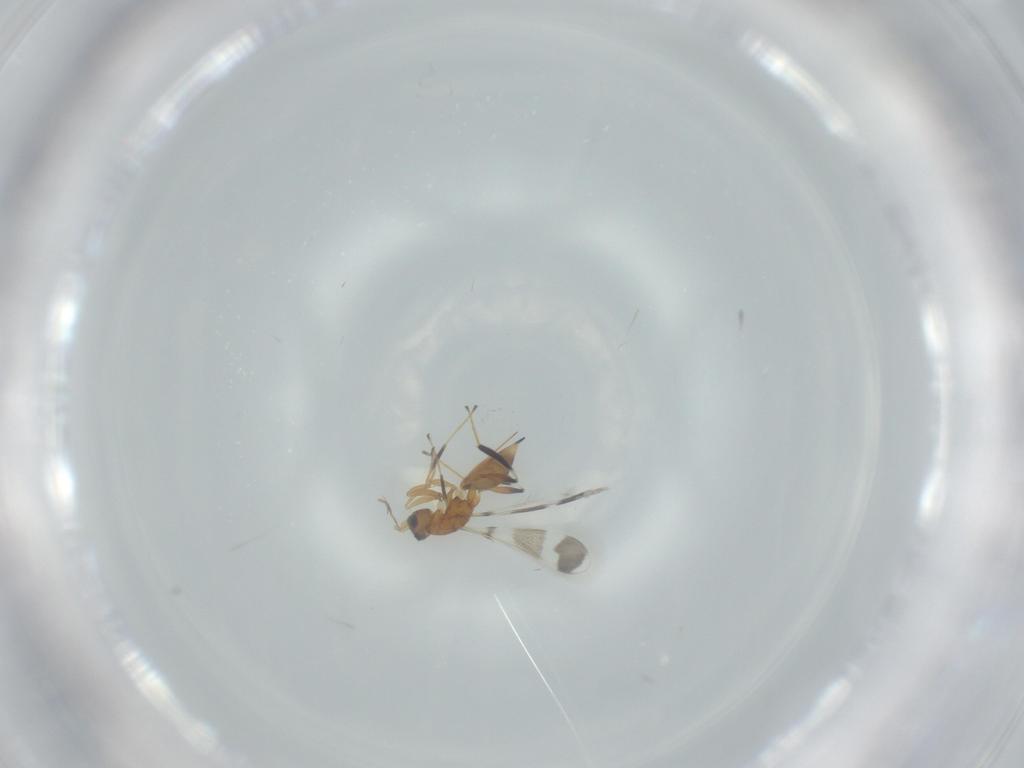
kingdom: Animalia
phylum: Arthropoda
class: Insecta
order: Hymenoptera
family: Mymaridae
